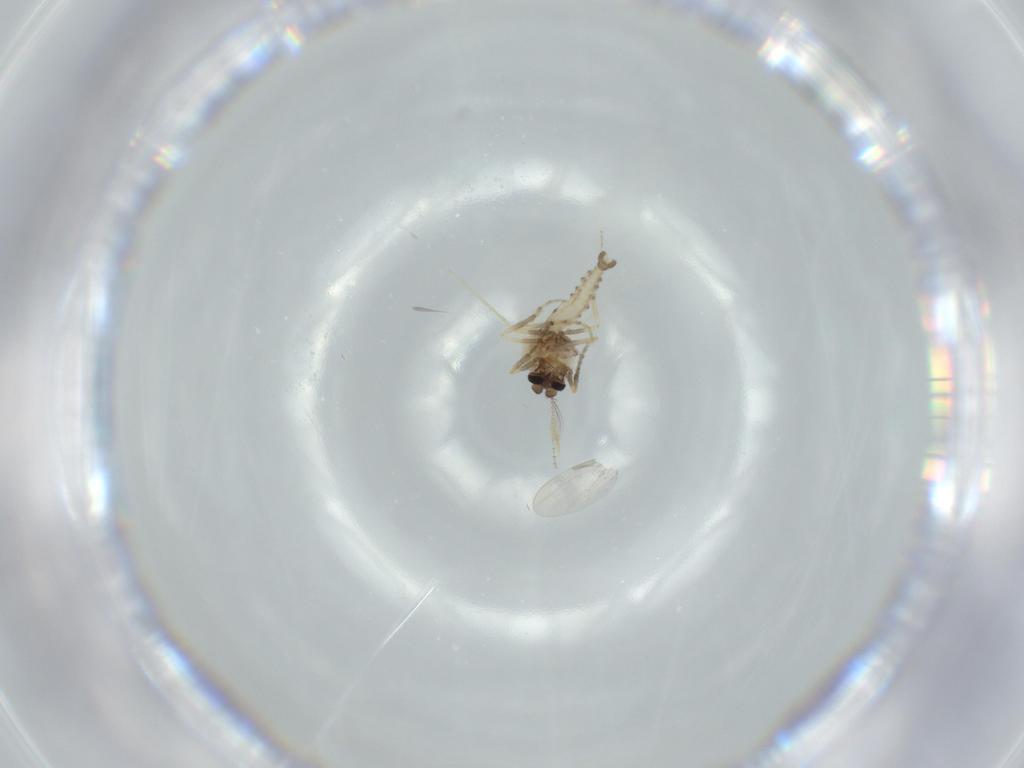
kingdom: Animalia
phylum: Arthropoda
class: Insecta
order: Diptera
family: Ceratopogonidae
